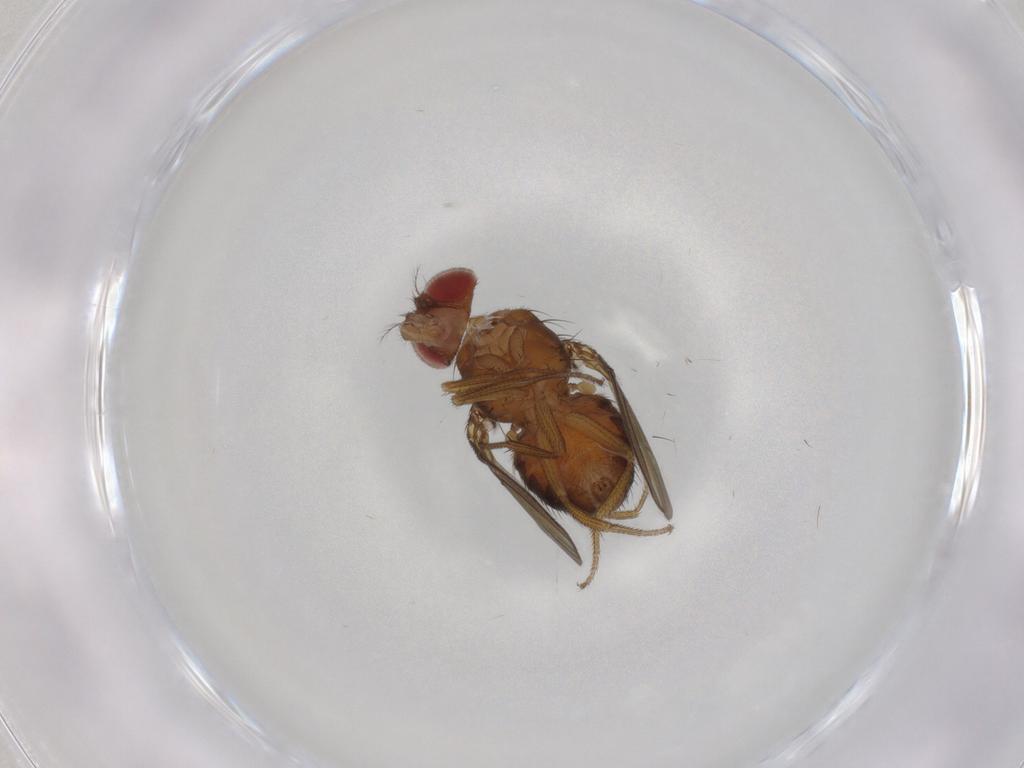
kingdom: Animalia
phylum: Arthropoda
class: Insecta
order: Diptera
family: Drosophilidae
